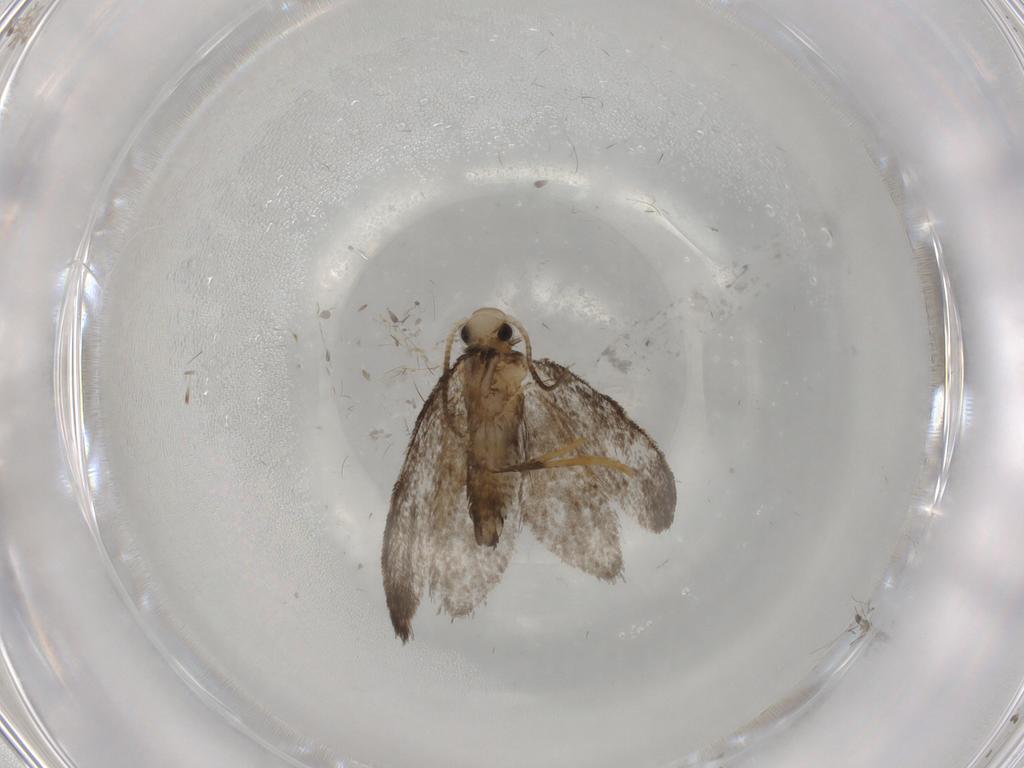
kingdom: Animalia
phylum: Arthropoda
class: Insecta
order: Lepidoptera
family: Psychidae
